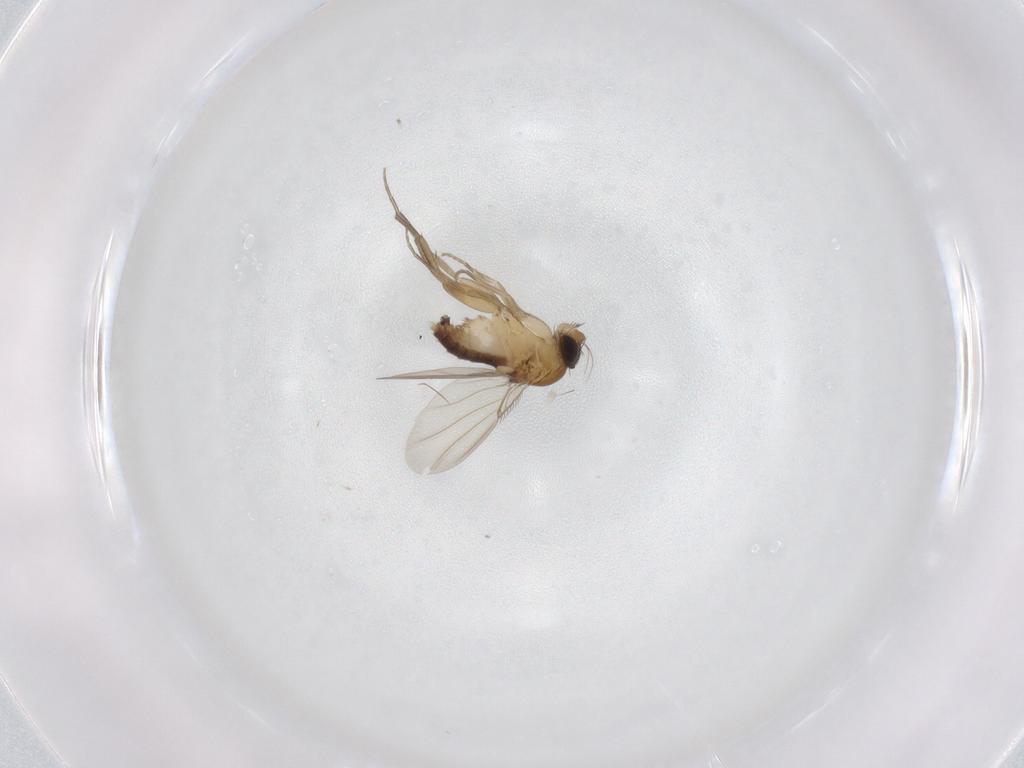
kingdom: Animalia
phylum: Arthropoda
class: Insecta
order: Diptera
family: Phoridae
